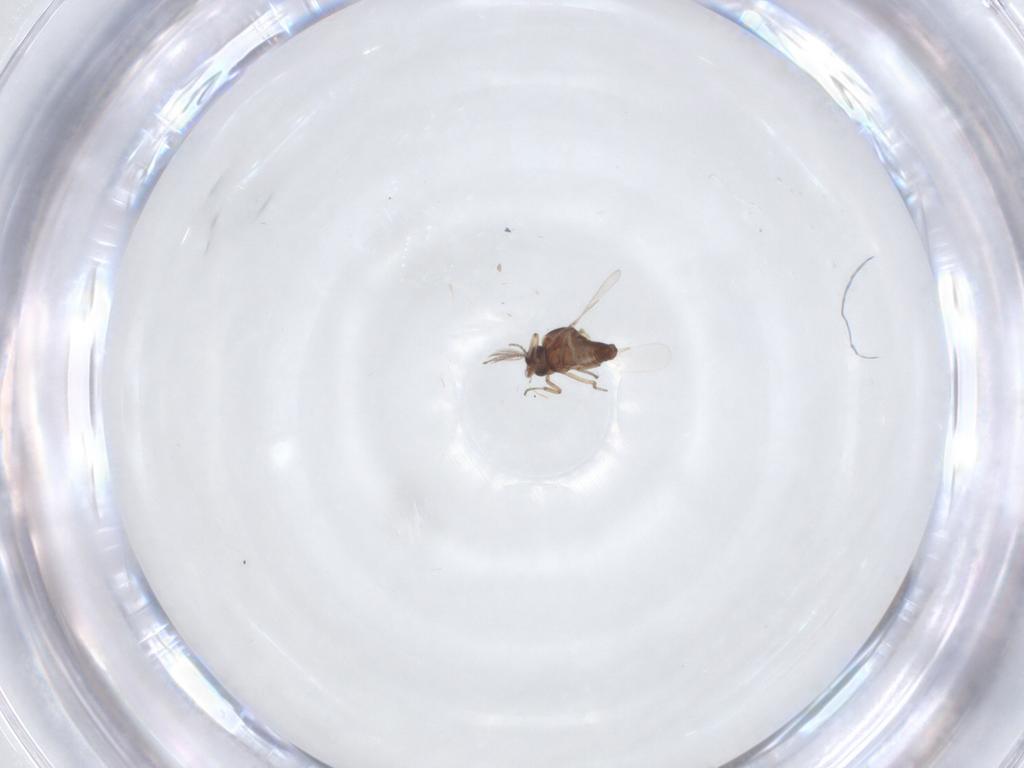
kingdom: Animalia
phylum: Arthropoda
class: Insecta
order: Diptera
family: Ceratopogonidae
